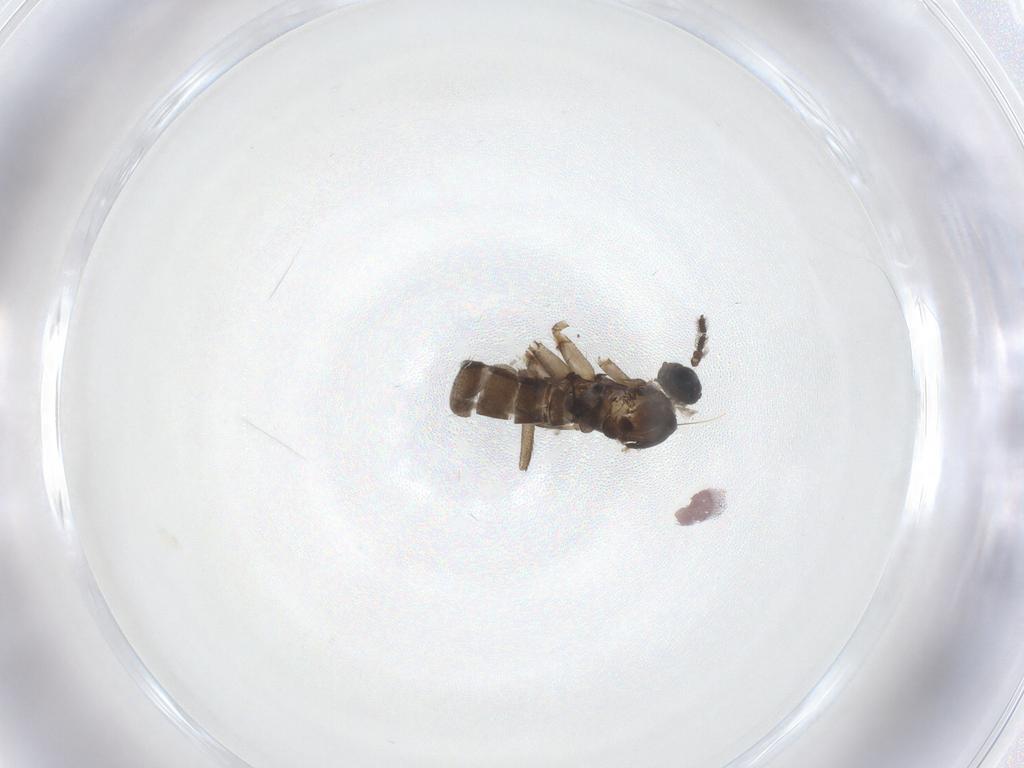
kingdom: Animalia
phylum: Arthropoda
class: Insecta
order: Diptera
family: Sciaridae
